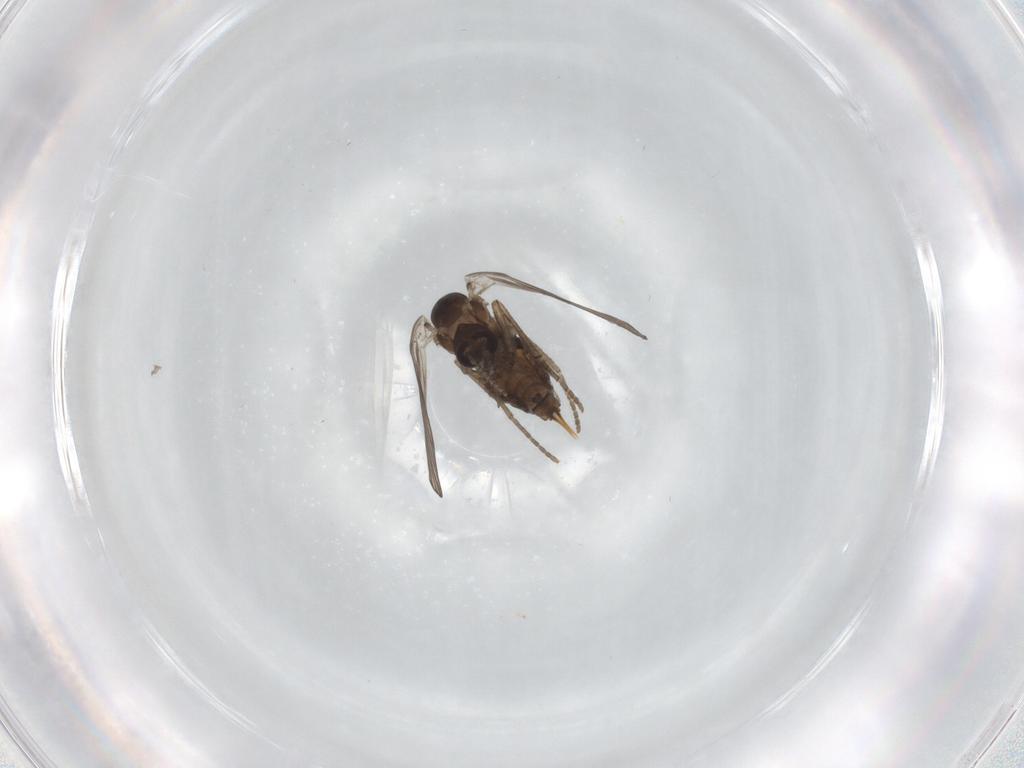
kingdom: Animalia
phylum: Arthropoda
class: Insecta
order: Diptera
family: Psychodidae
